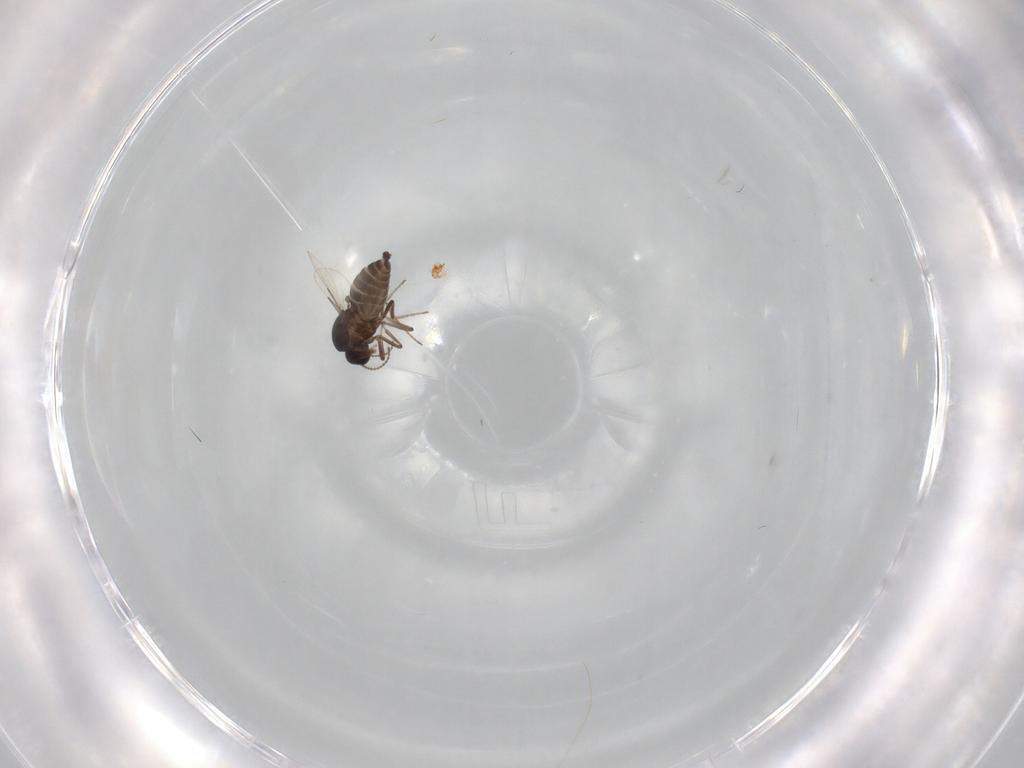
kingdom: Animalia
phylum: Arthropoda
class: Insecta
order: Diptera
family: Ceratopogonidae
